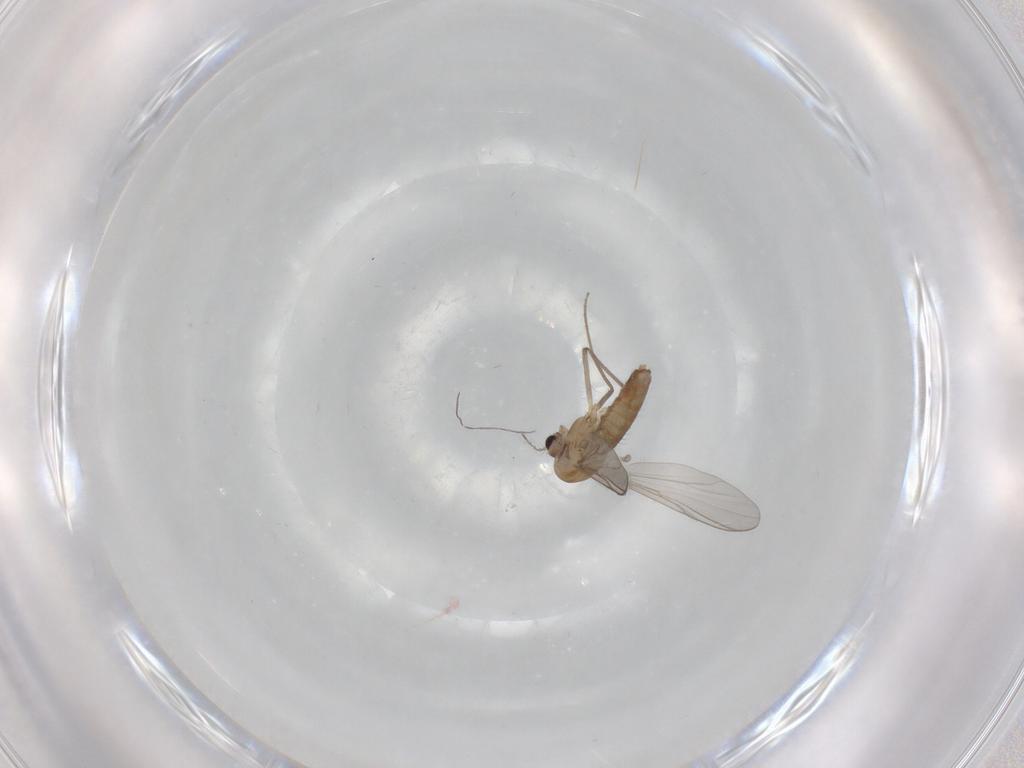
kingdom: Animalia
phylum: Arthropoda
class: Insecta
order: Diptera
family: Chironomidae
